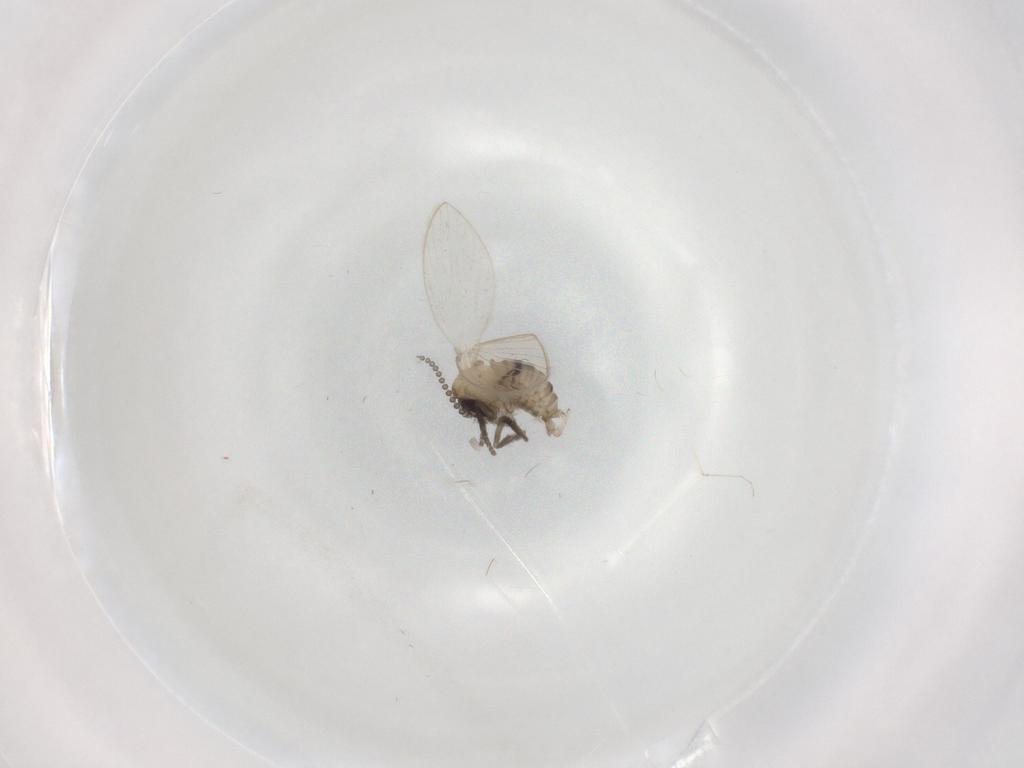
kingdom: Animalia
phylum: Arthropoda
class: Insecta
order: Diptera
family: Psychodidae
